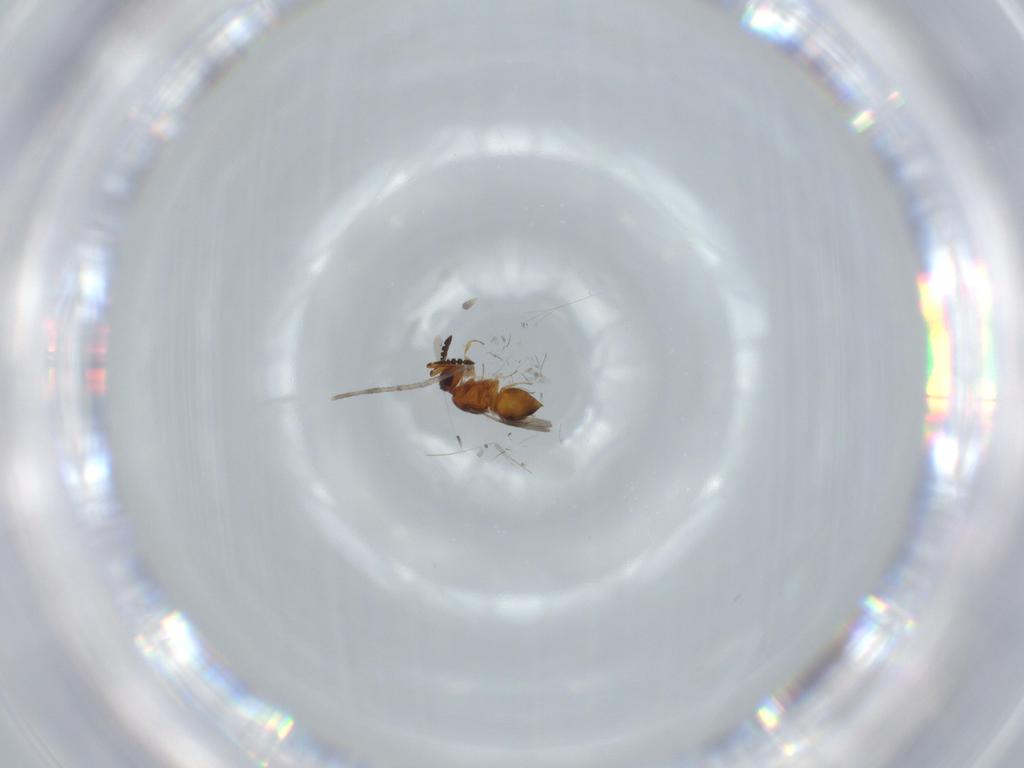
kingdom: Animalia
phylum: Arthropoda
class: Insecta
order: Hymenoptera
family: Ceraphronidae
